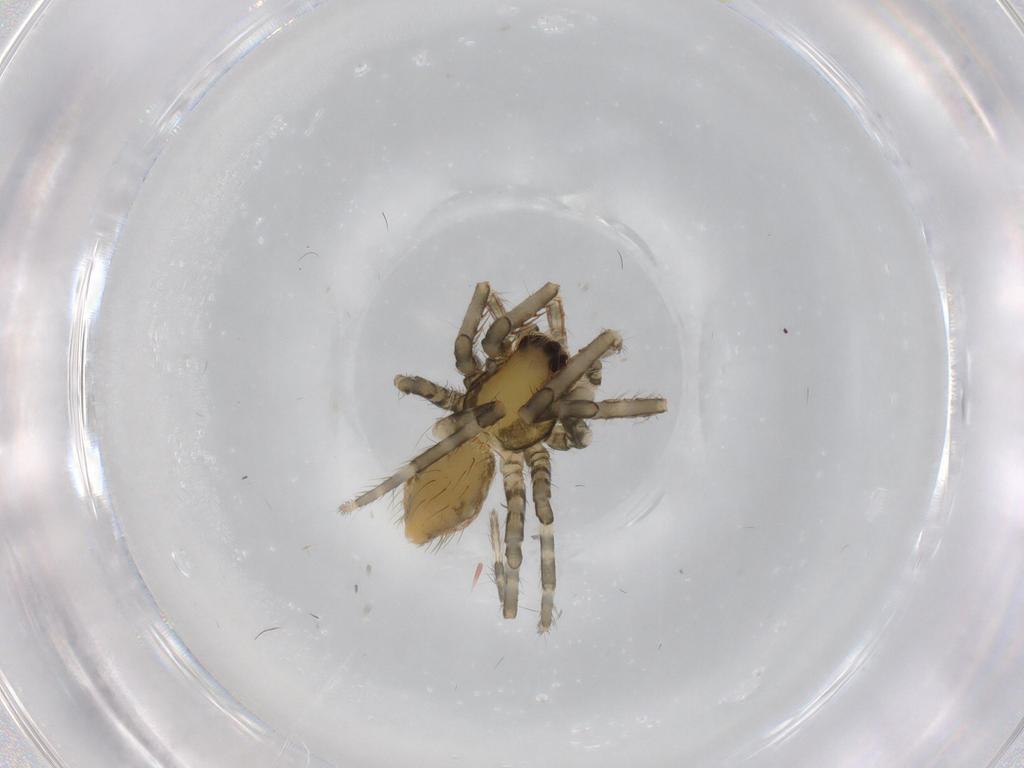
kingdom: Animalia
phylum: Arthropoda
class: Arachnida
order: Araneae
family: Ctenidae
